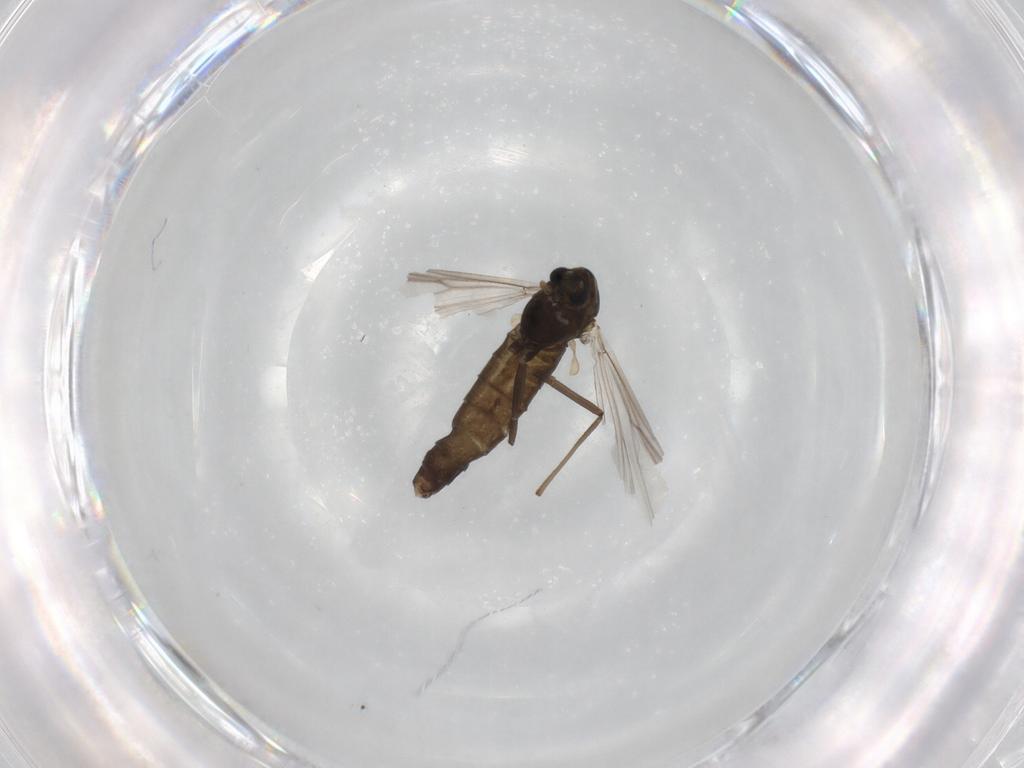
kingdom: Animalia
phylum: Arthropoda
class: Insecta
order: Diptera
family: Chironomidae
